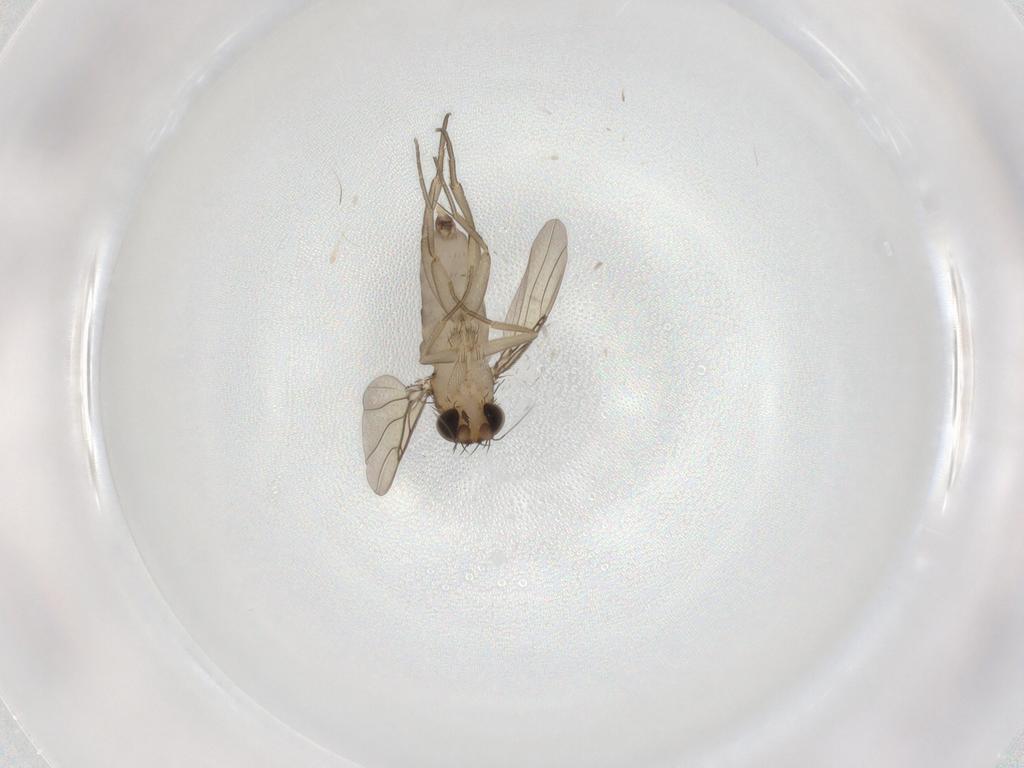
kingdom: Animalia
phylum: Arthropoda
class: Insecta
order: Diptera
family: Phoridae
